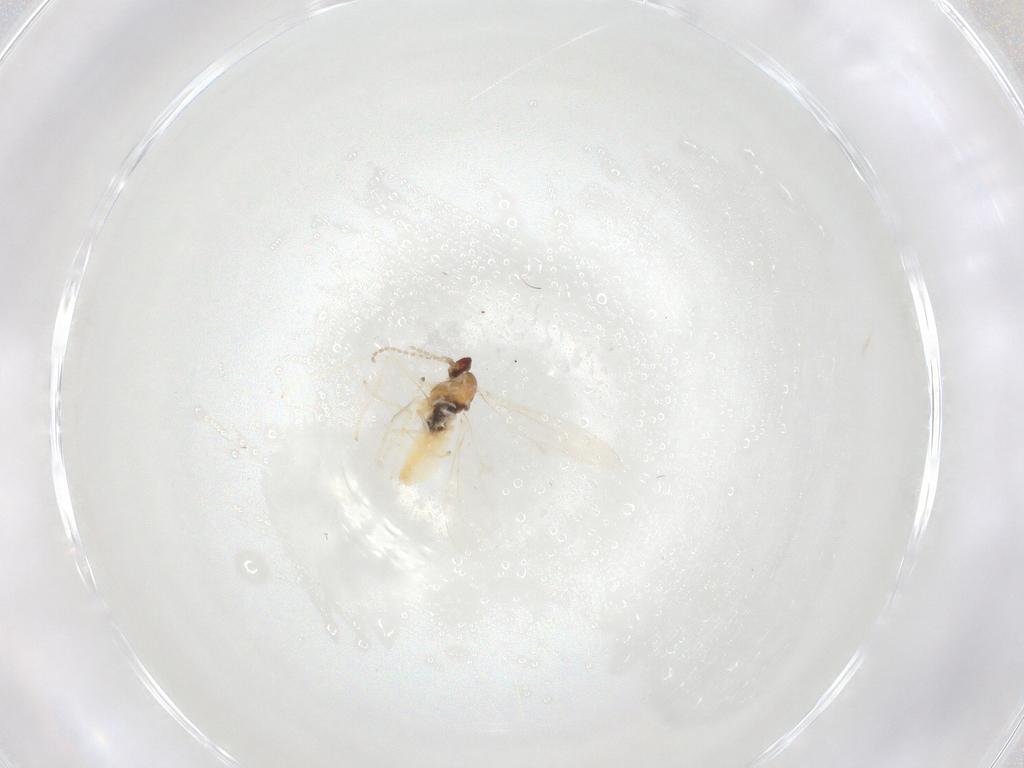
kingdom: Animalia
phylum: Arthropoda
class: Insecta
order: Diptera
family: Cecidomyiidae
